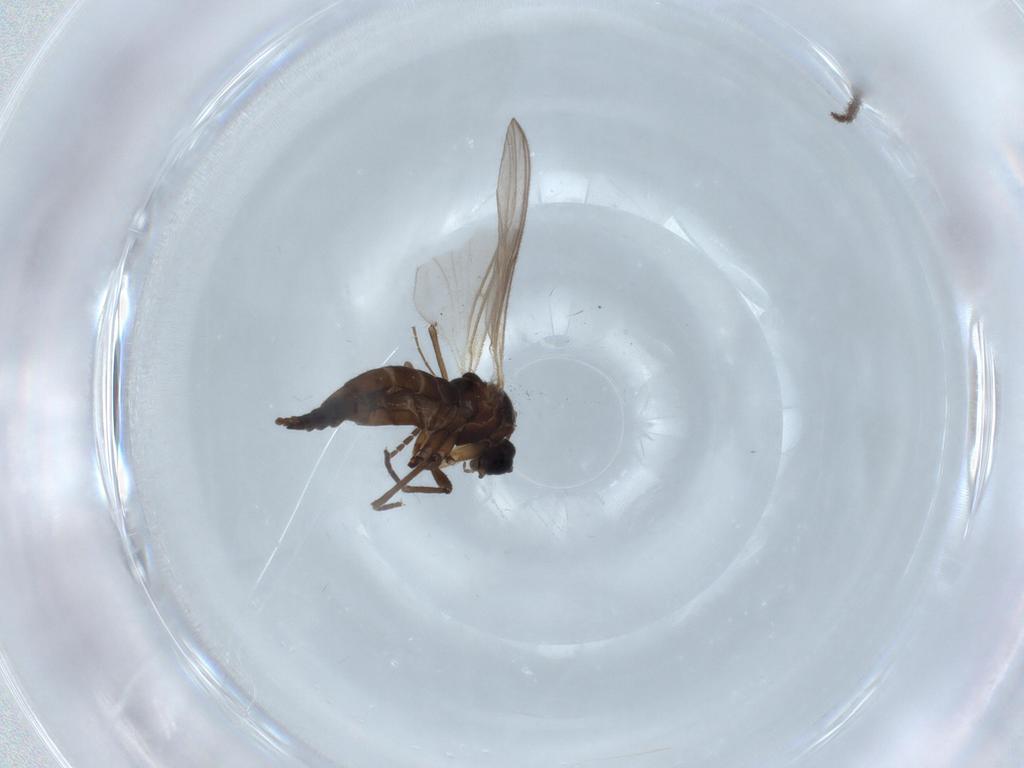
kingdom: Animalia
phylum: Arthropoda
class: Insecta
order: Diptera
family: Sciaridae
